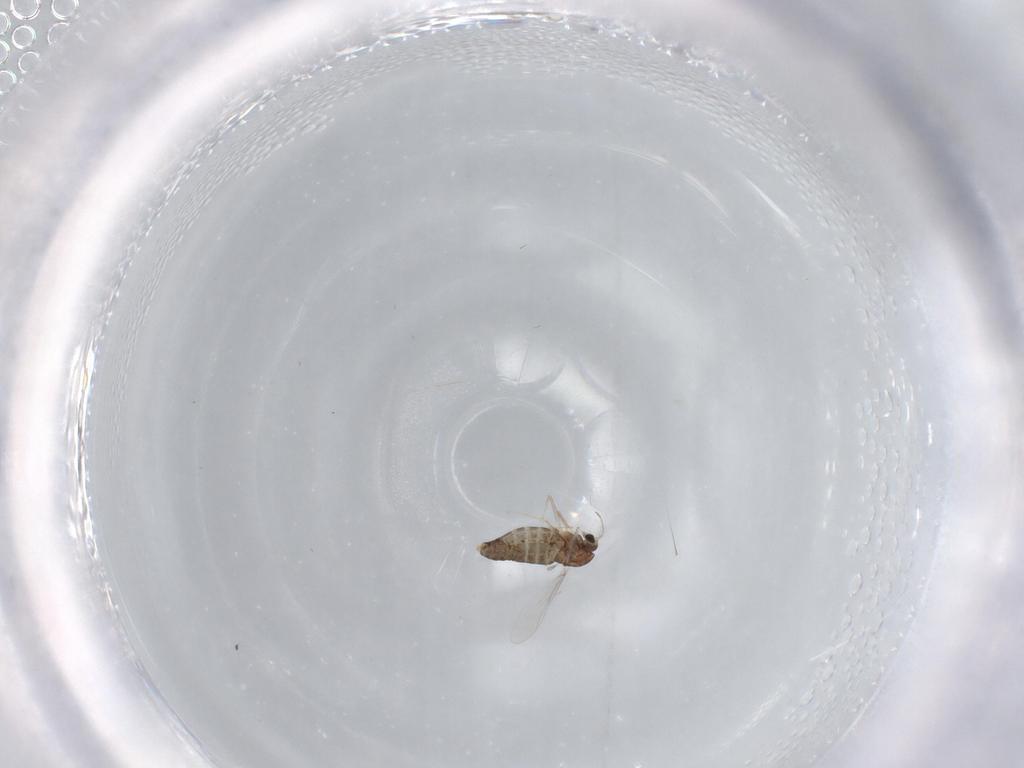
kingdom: Animalia
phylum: Arthropoda
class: Insecta
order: Diptera
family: Chironomidae
